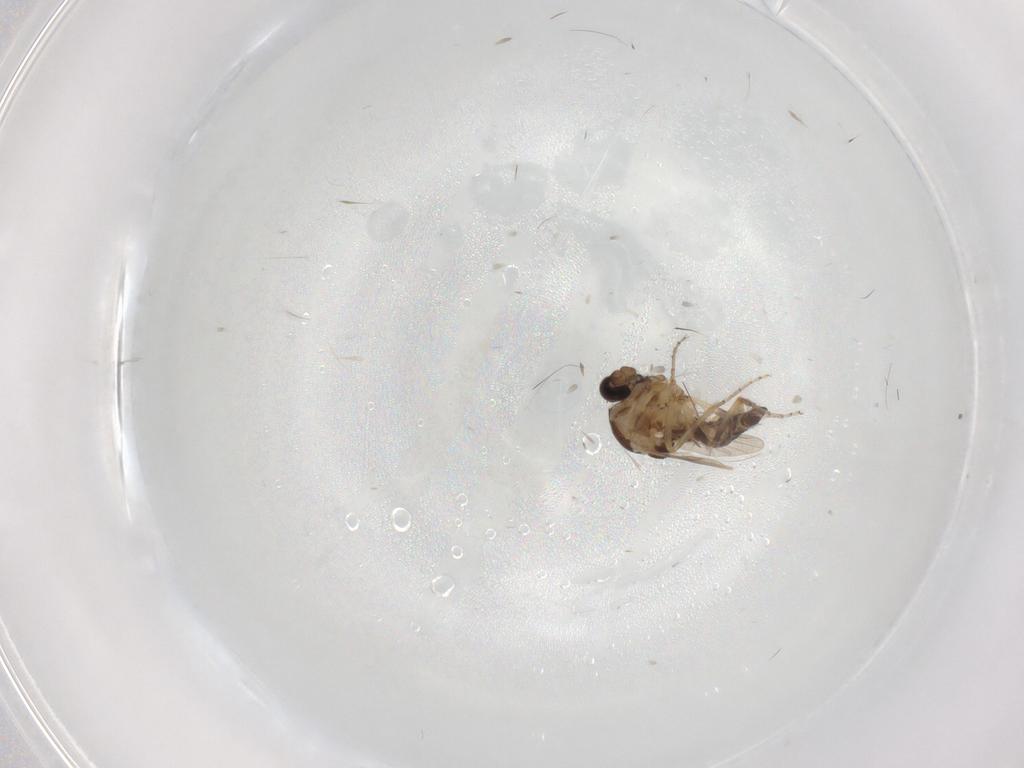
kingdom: Animalia
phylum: Arthropoda
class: Insecta
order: Diptera
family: Ceratopogonidae
